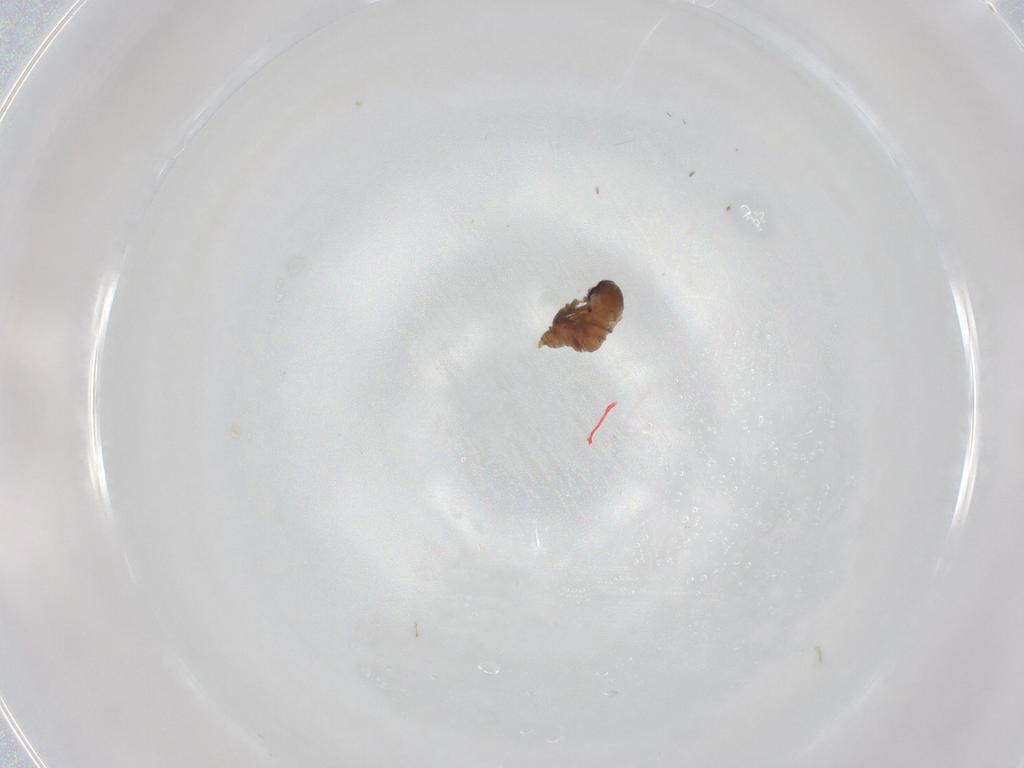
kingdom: Animalia
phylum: Arthropoda
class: Insecta
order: Diptera
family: Psychodidae
